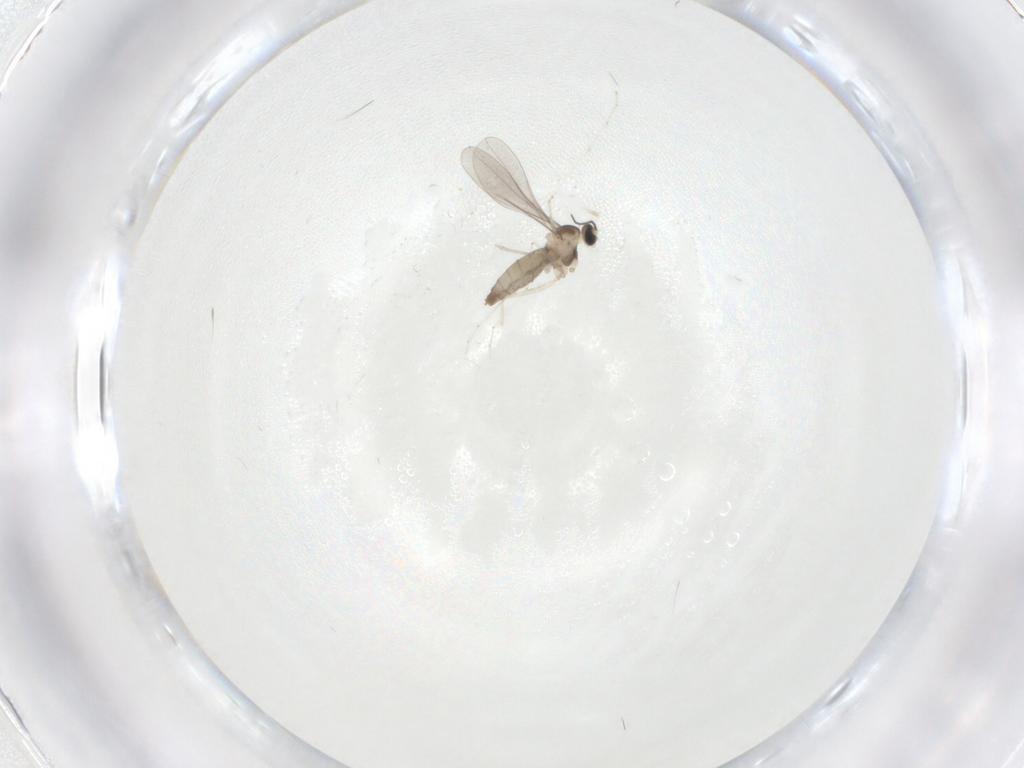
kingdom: Animalia
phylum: Arthropoda
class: Insecta
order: Diptera
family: Cecidomyiidae
